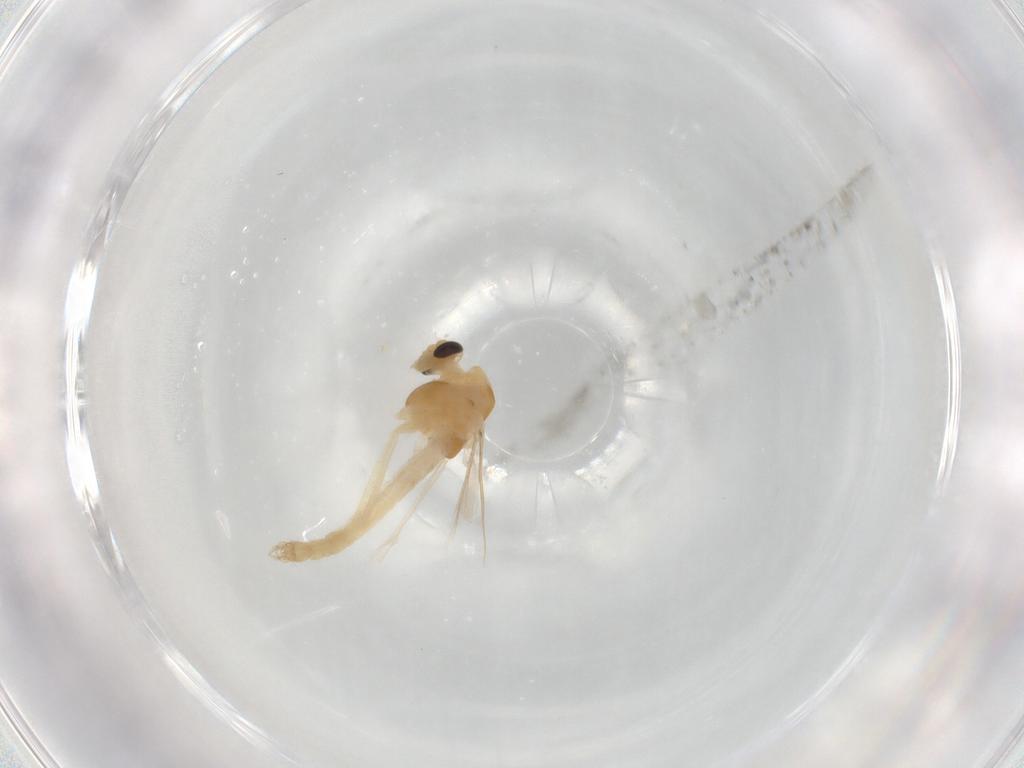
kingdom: Animalia
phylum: Arthropoda
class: Insecta
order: Diptera
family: Chironomidae
